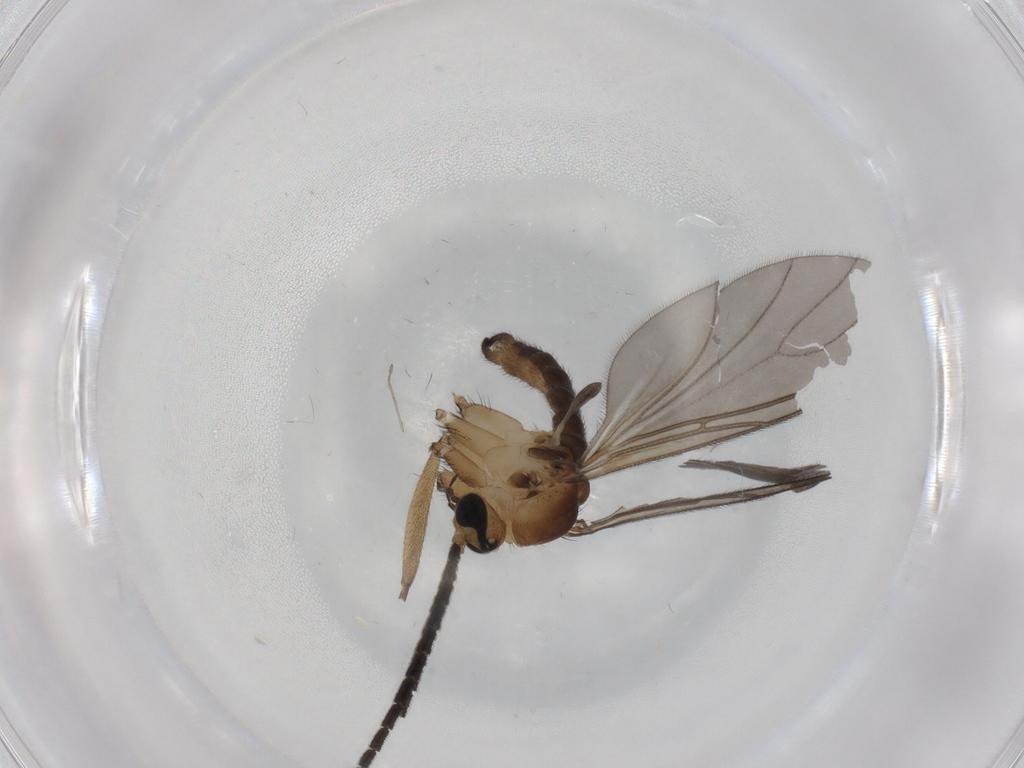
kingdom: Animalia
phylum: Arthropoda
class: Insecta
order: Diptera
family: Sciaridae
